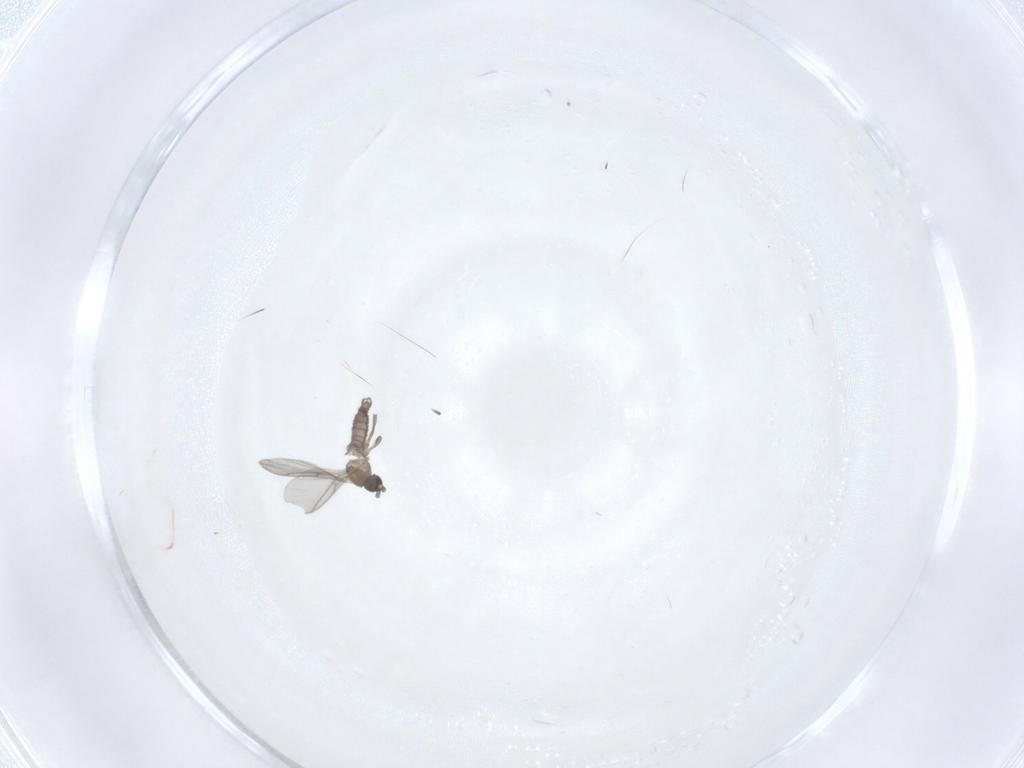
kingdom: Animalia
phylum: Arthropoda
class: Insecta
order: Diptera
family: Sciaridae
